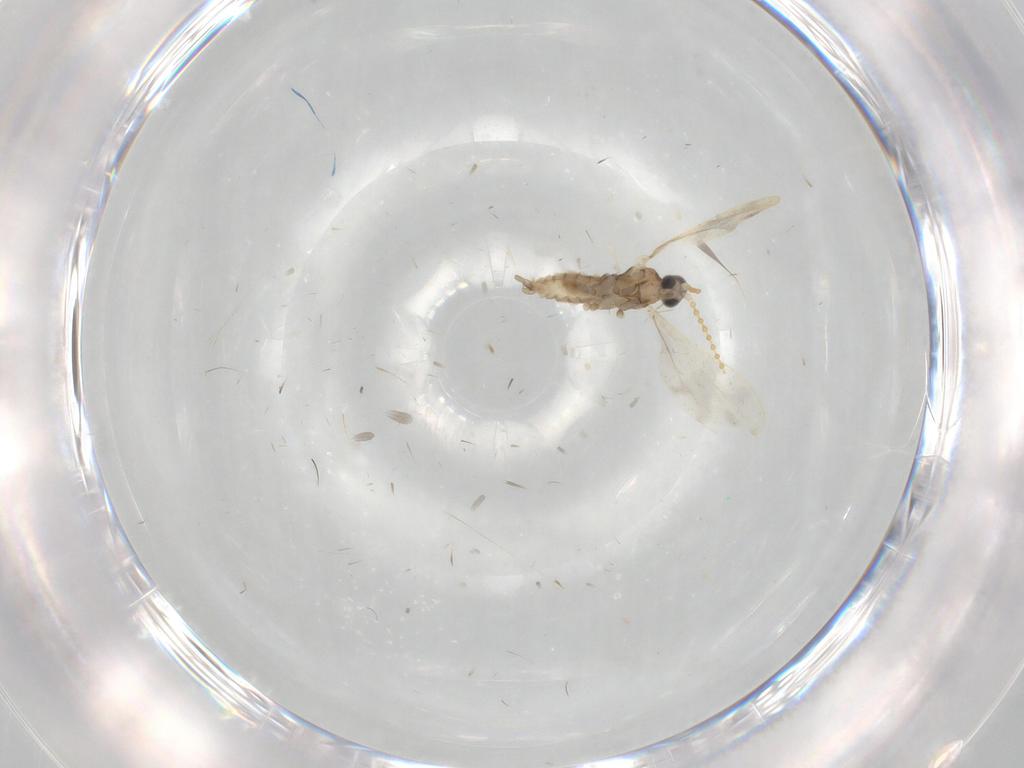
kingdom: Animalia
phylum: Arthropoda
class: Insecta
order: Diptera
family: Cecidomyiidae
